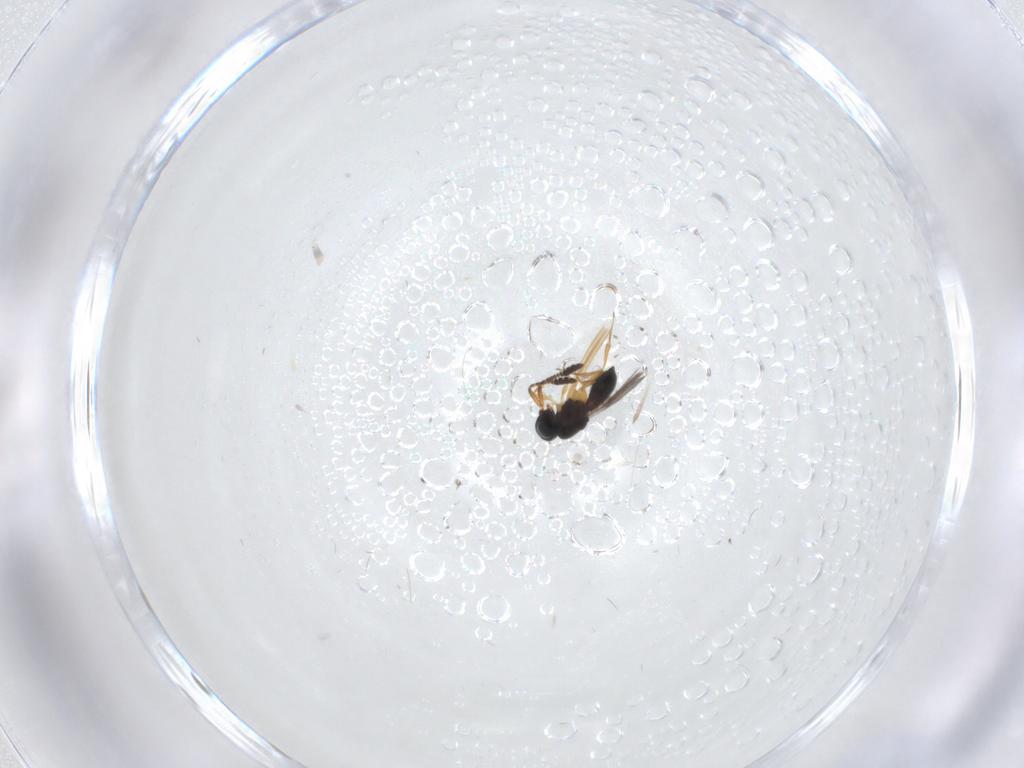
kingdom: Animalia
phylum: Arthropoda
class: Insecta
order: Hymenoptera
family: Scelionidae
